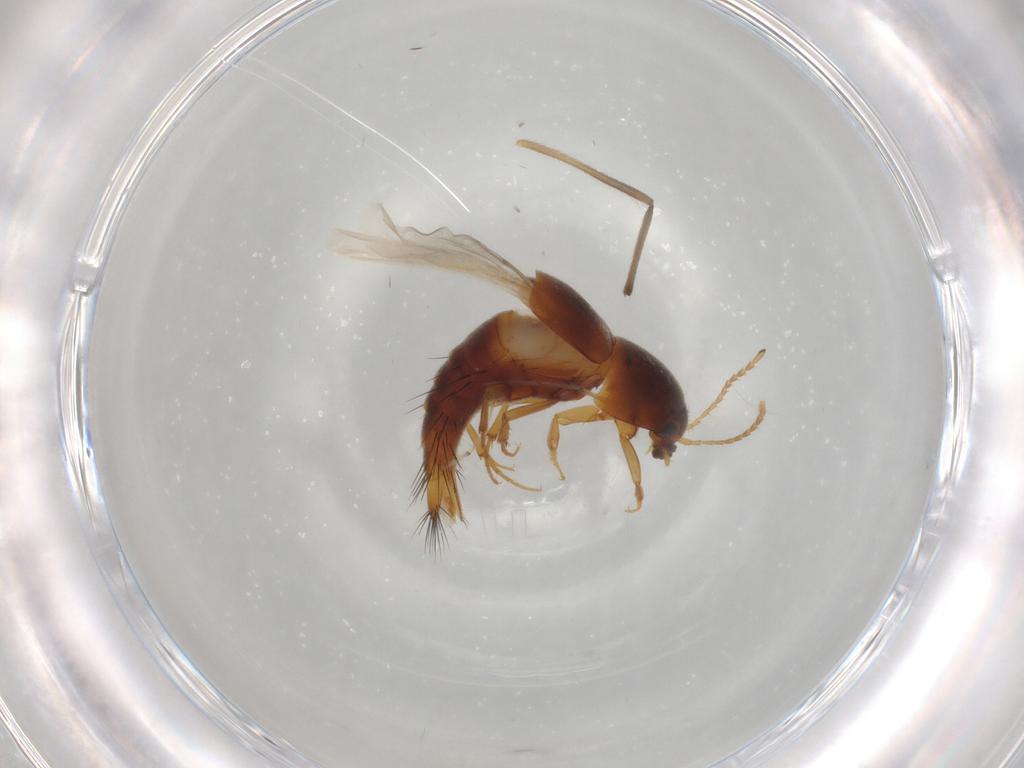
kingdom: Animalia
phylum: Arthropoda
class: Insecta
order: Coleoptera
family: Staphylinidae
